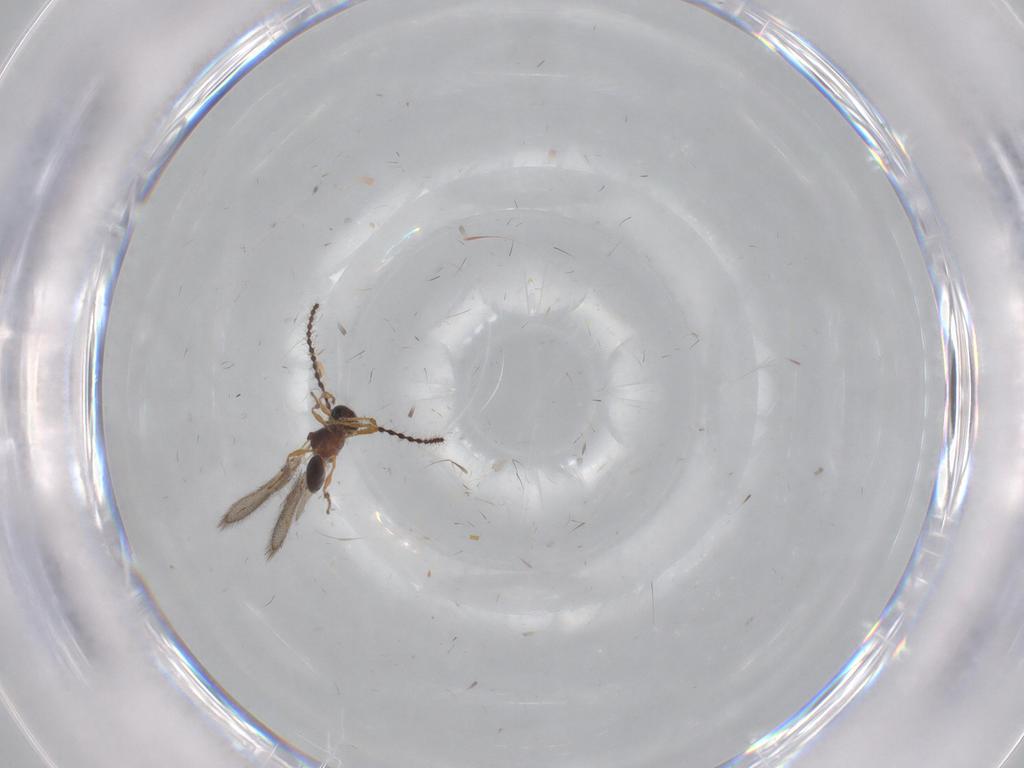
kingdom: Animalia
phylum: Arthropoda
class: Insecta
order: Hymenoptera
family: Diapriidae
